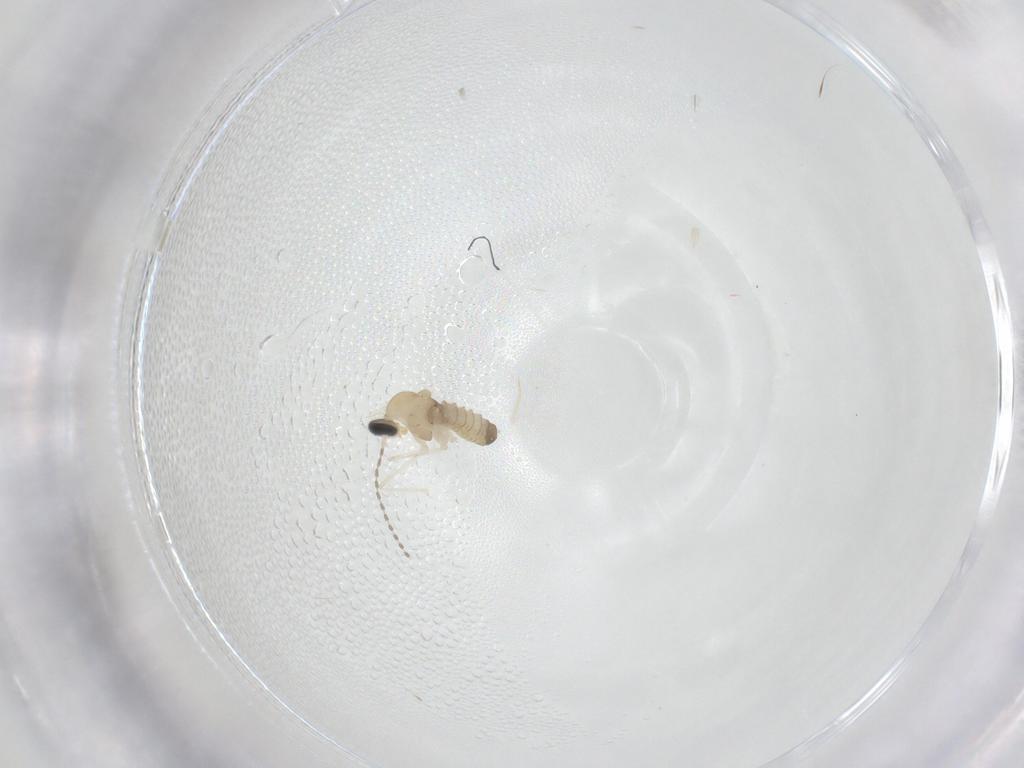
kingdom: Animalia
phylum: Arthropoda
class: Insecta
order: Diptera
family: Cecidomyiidae
